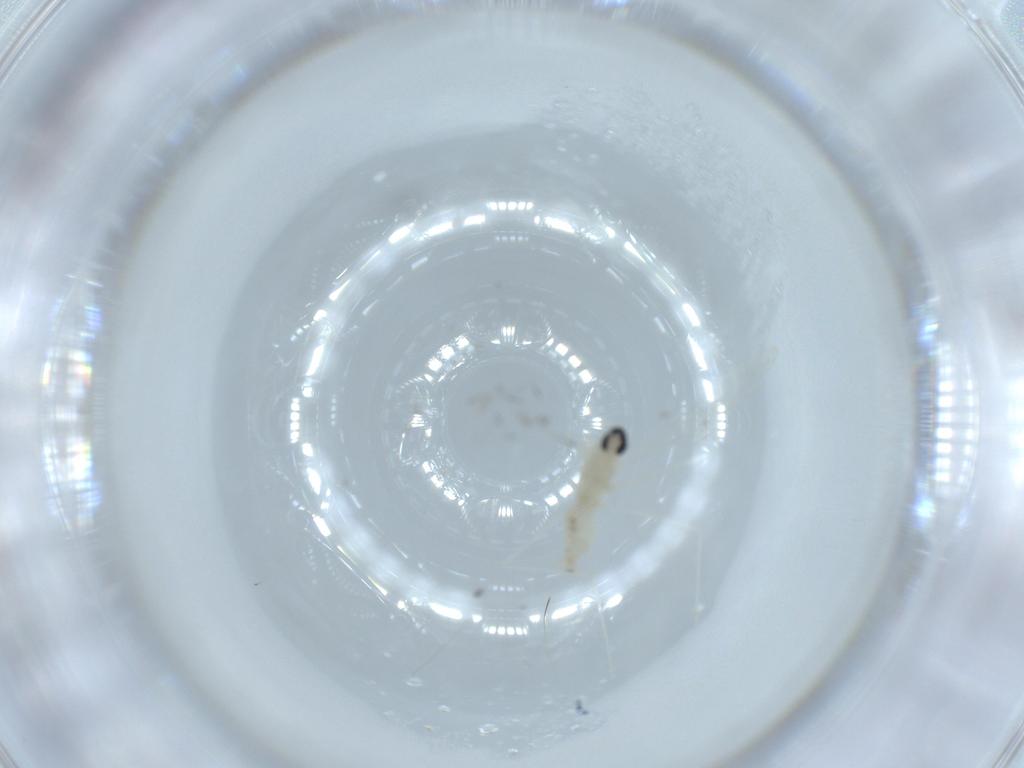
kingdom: Animalia
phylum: Arthropoda
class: Insecta
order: Diptera
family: Cecidomyiidae
